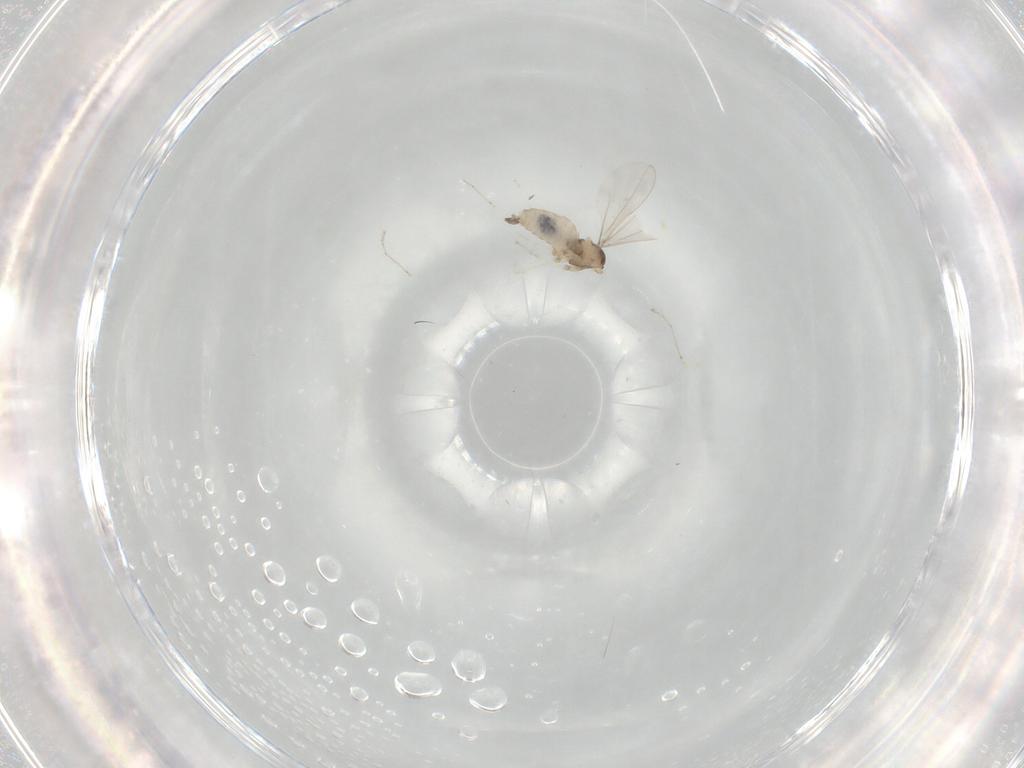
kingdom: Animalia
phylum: Arthropoda
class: Insecta
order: Diptera
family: Cecidomyiidae
